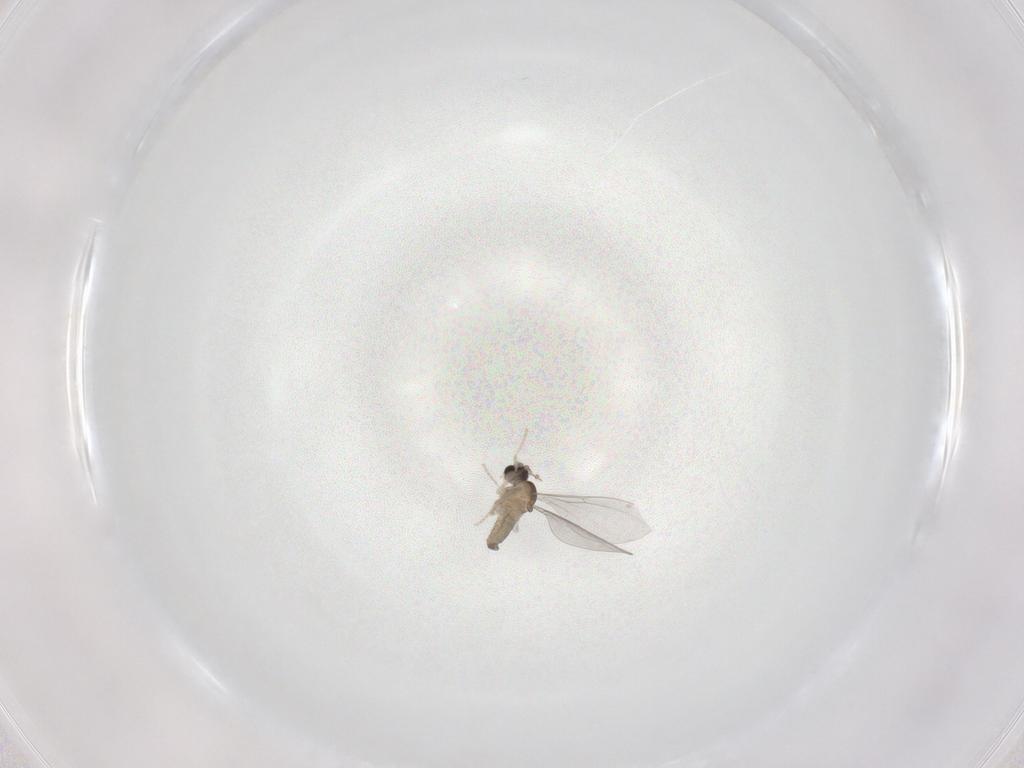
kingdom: Animalia
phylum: Arthropoda
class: Insecta
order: Diptera
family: Cecidomyiidae
